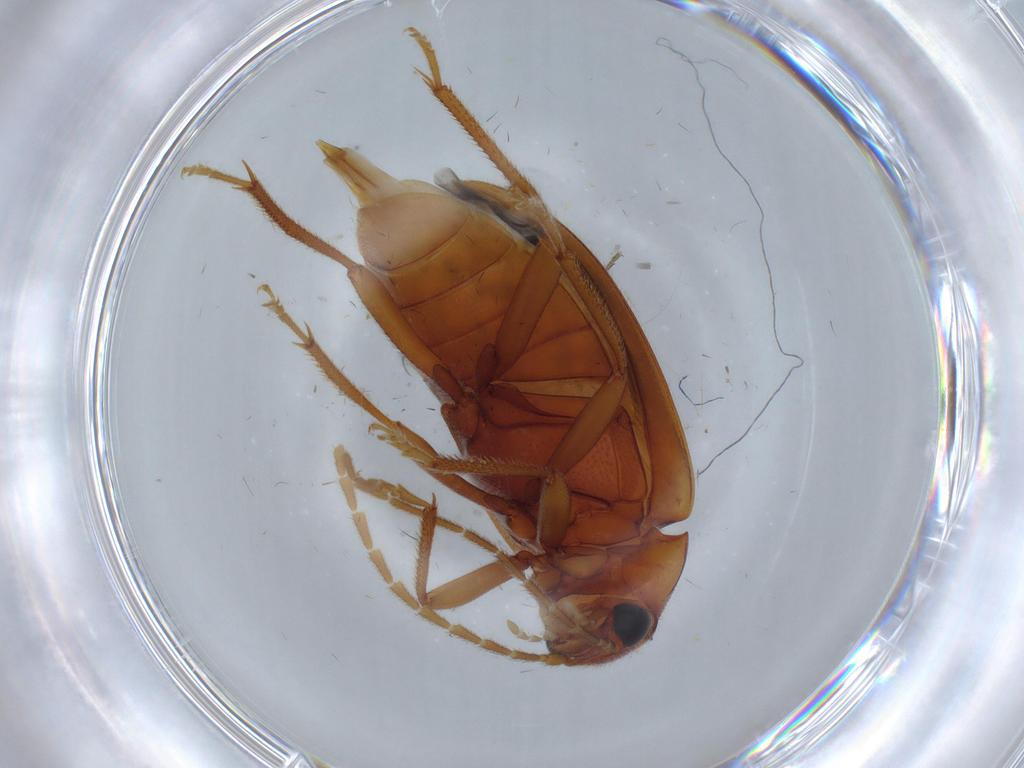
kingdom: Animalia
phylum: Arthropoda
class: Insecta
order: Coleoptera
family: Ptilodactylidae
